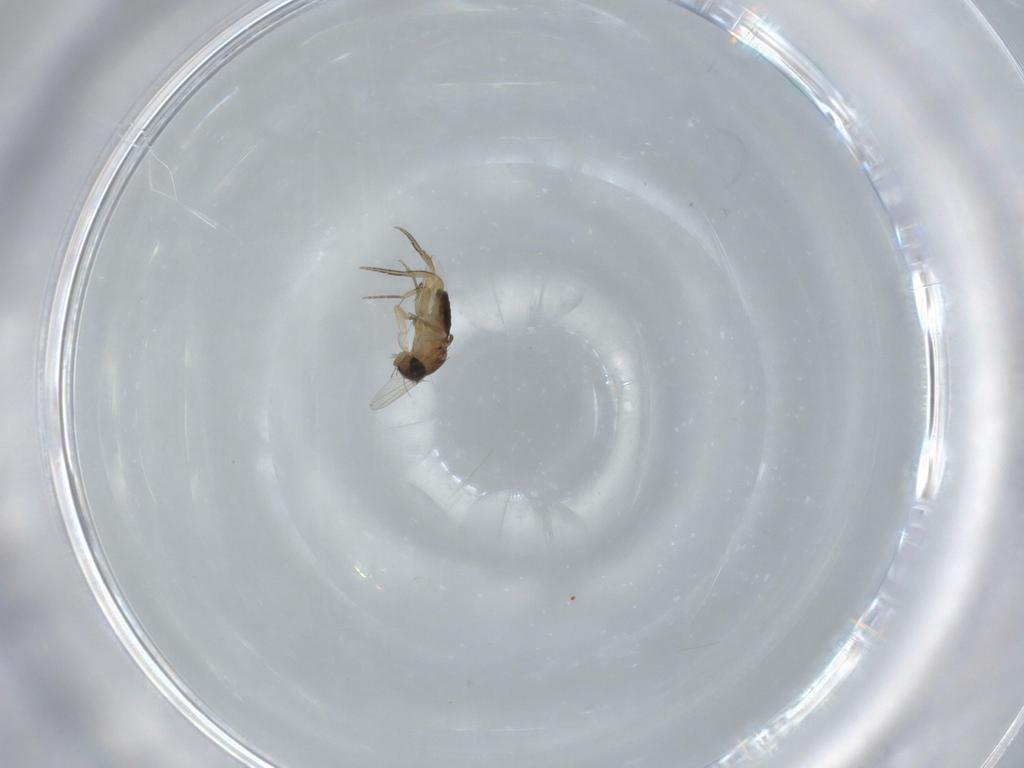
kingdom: Animalia
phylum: Arthropoda
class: Insecta
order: Diptera
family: Phoridae
